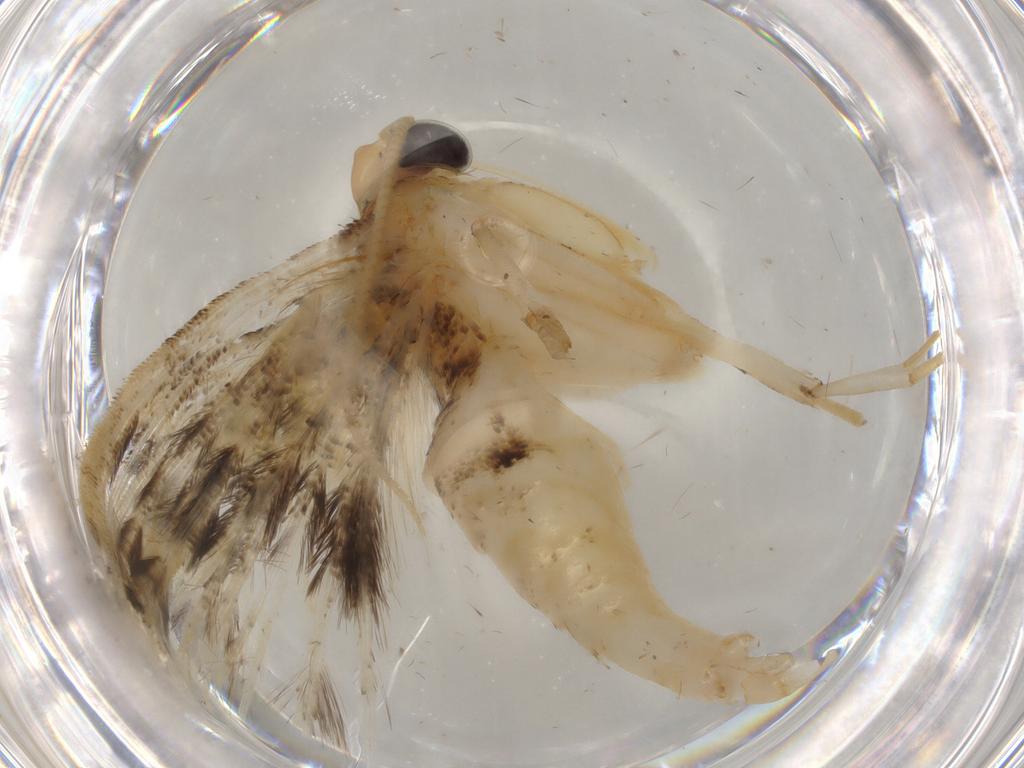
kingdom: Animalia
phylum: Arthropoda
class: Insecta
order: Lepidoptera
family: Gelechiidae
